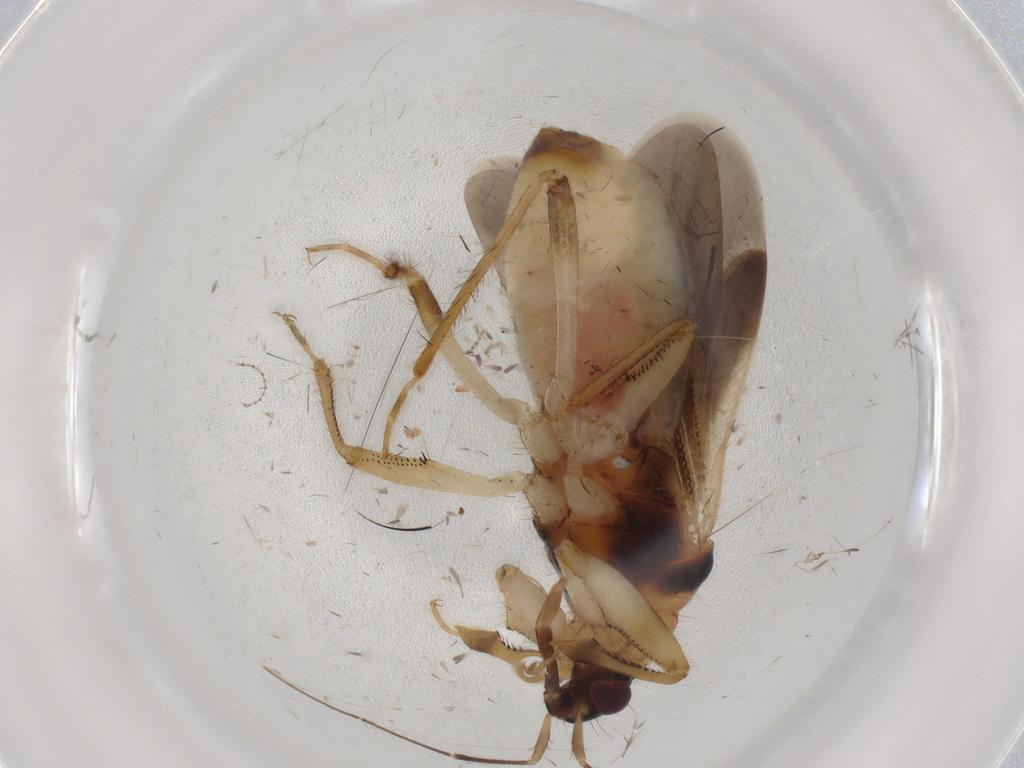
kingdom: Animalia
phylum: Arthropoda
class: Insecta
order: Hemiptera
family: Nabidae
